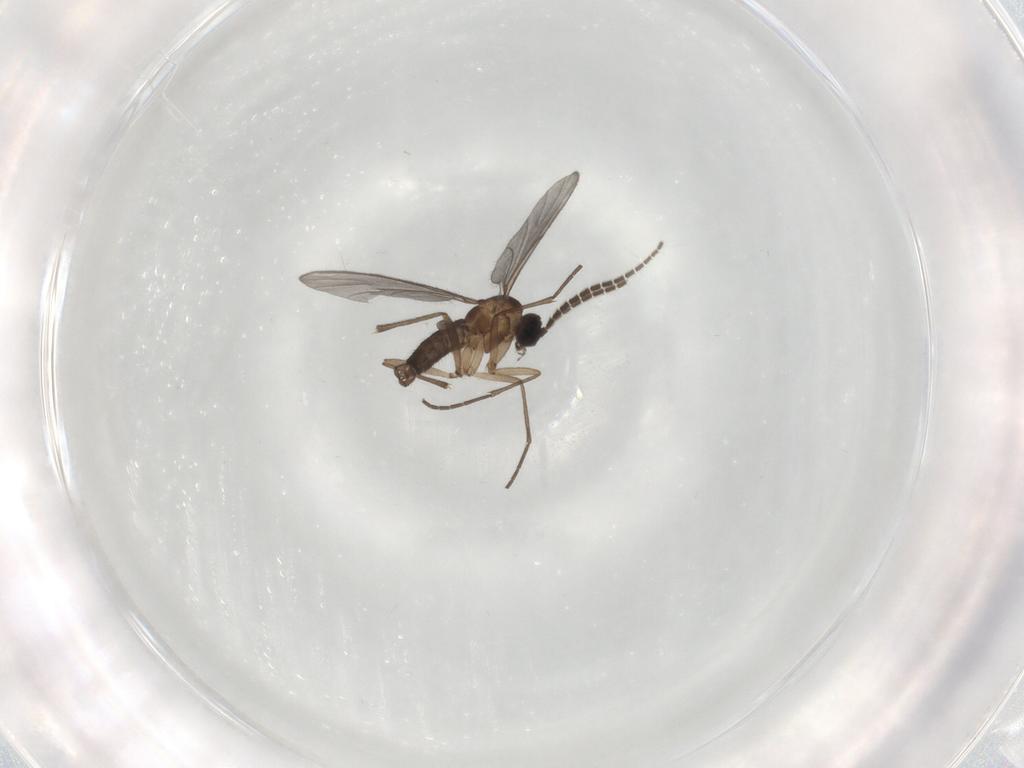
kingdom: Animalia
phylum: Arthropoda
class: Insecta
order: Diptera
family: Sciaridae
